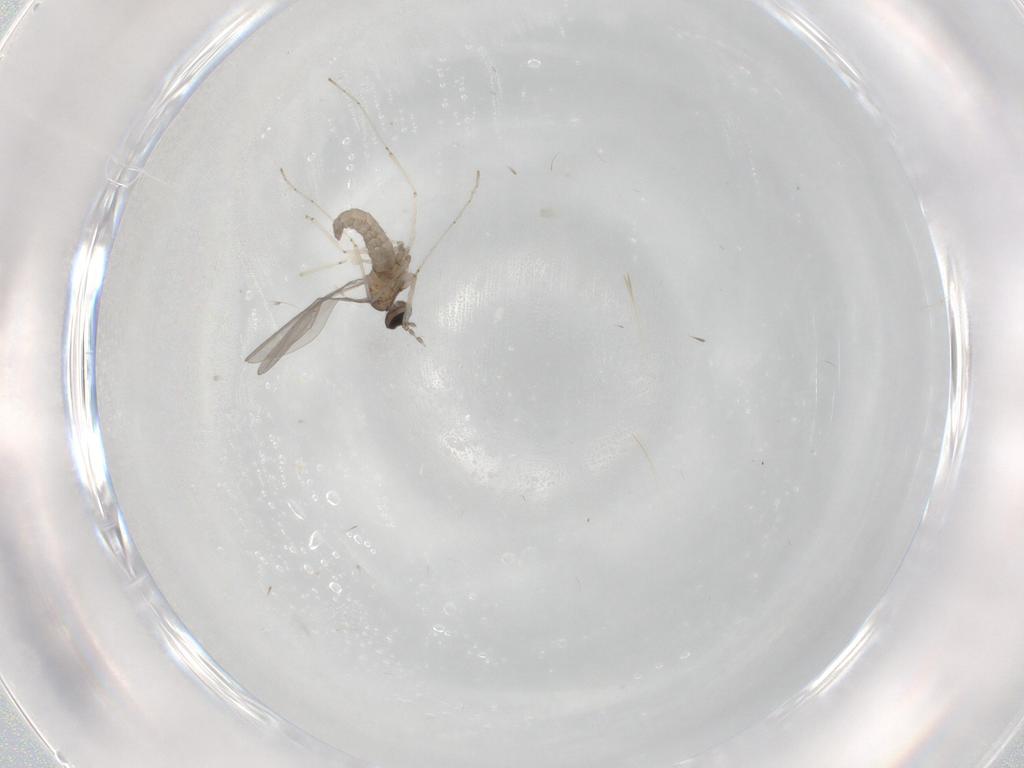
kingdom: Animalia
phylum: Arthropoda
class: Insecta
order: Diptera
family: Cecidomyiidae
